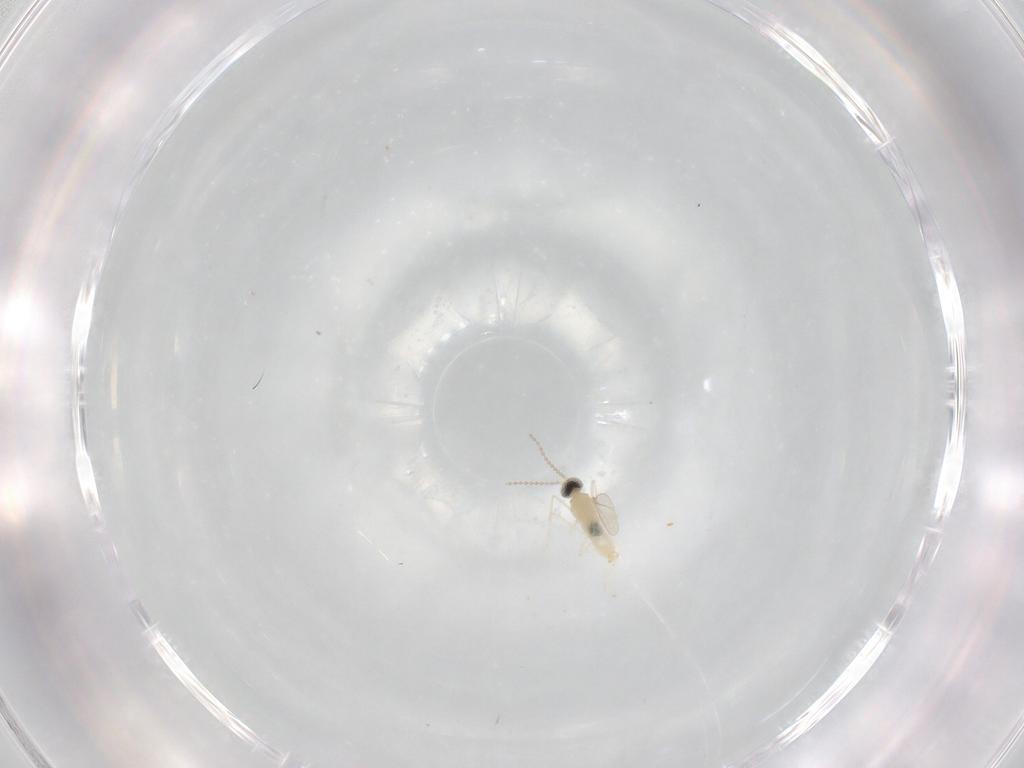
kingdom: Animalia
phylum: Arthropoda
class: Insecta
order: Diptera
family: Cecidomyiidae
